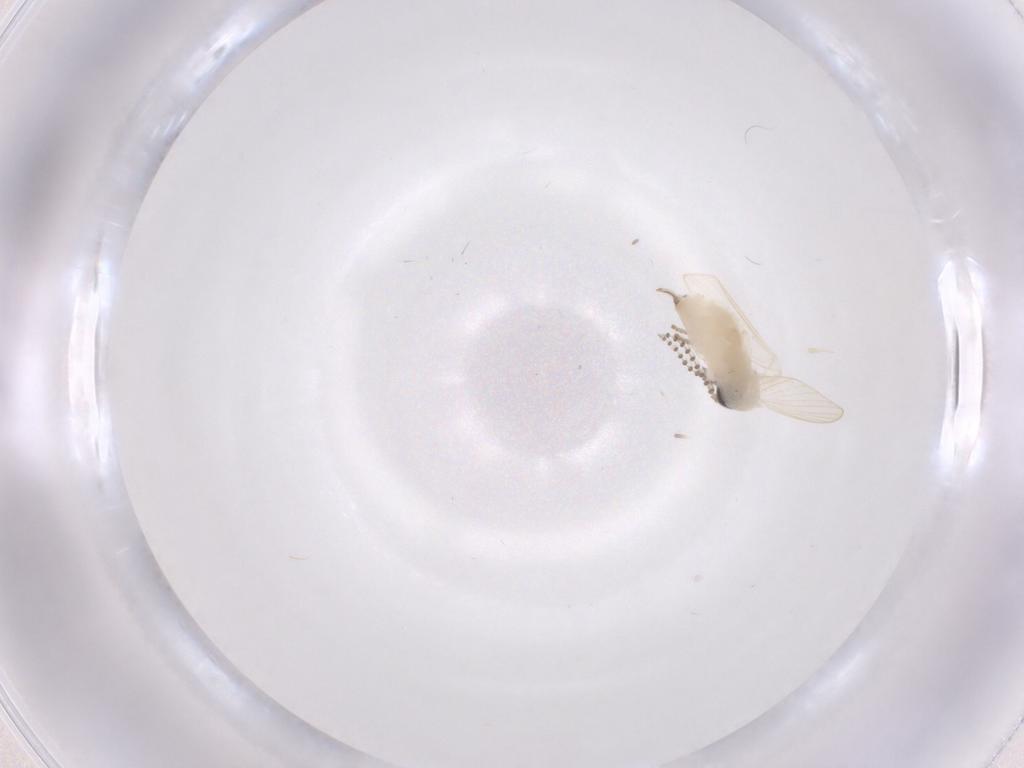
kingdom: Animalia
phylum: Arthropoda
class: Insecta
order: Diptera
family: Psychodidae
